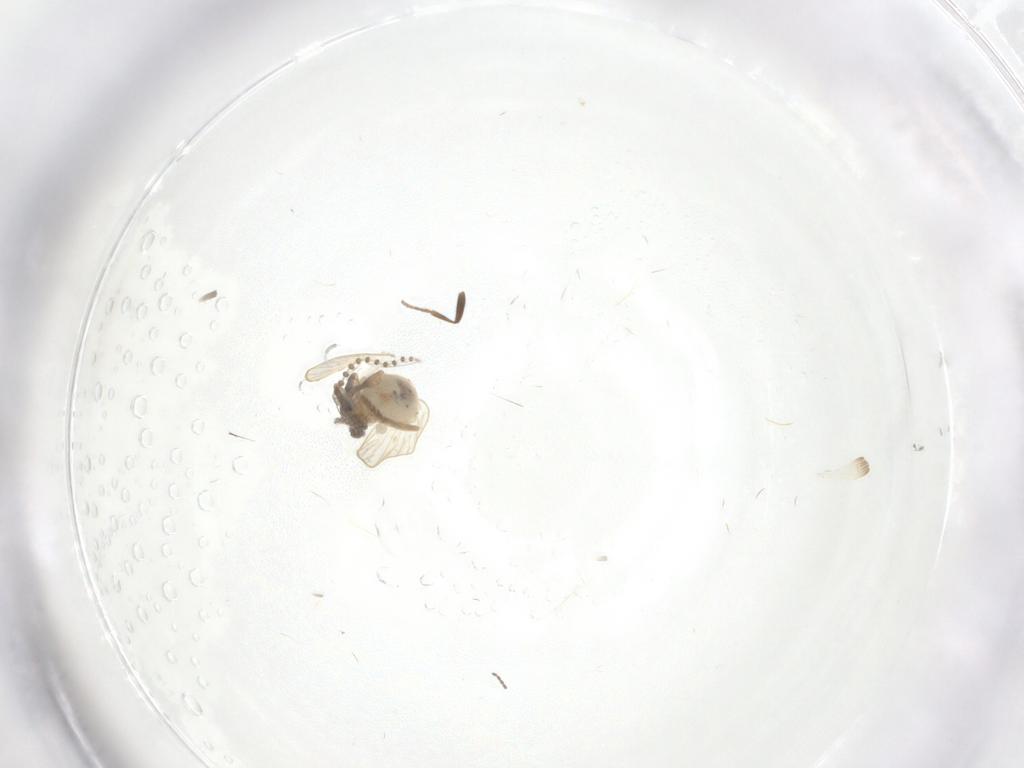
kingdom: Animalia
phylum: Arthropoda
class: Insecta
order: Diptera
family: Cecidomyiidae
